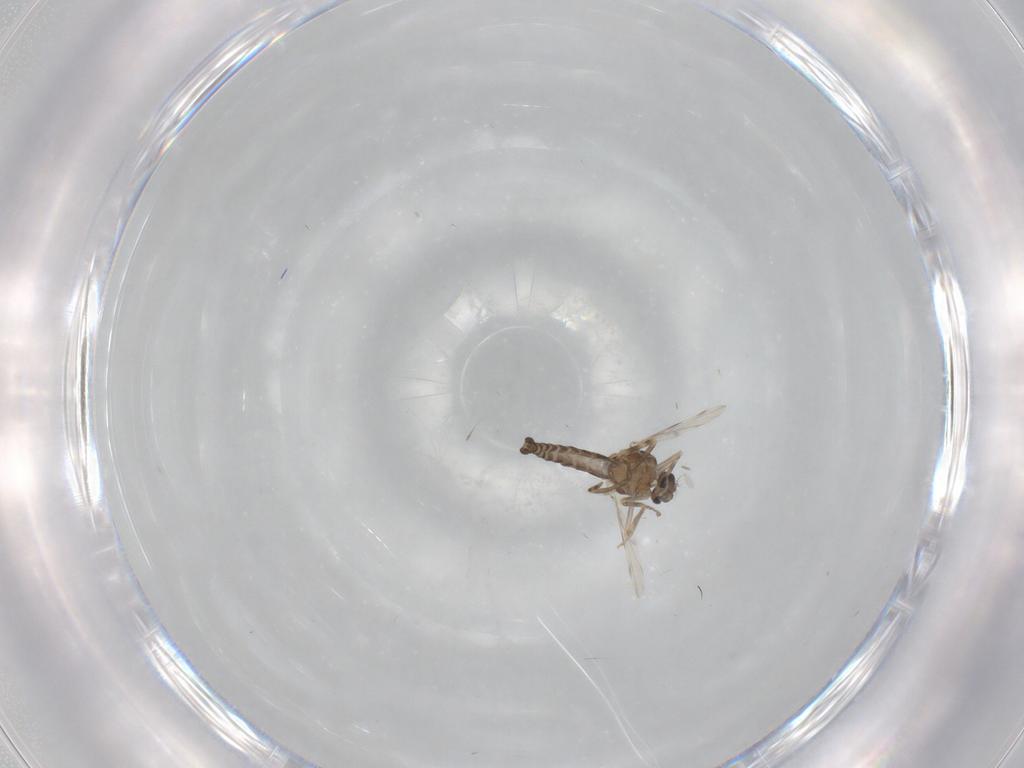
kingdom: Animalia
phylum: Arthropoda
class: Insecta
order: Diptera
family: Ceratopogonidae
